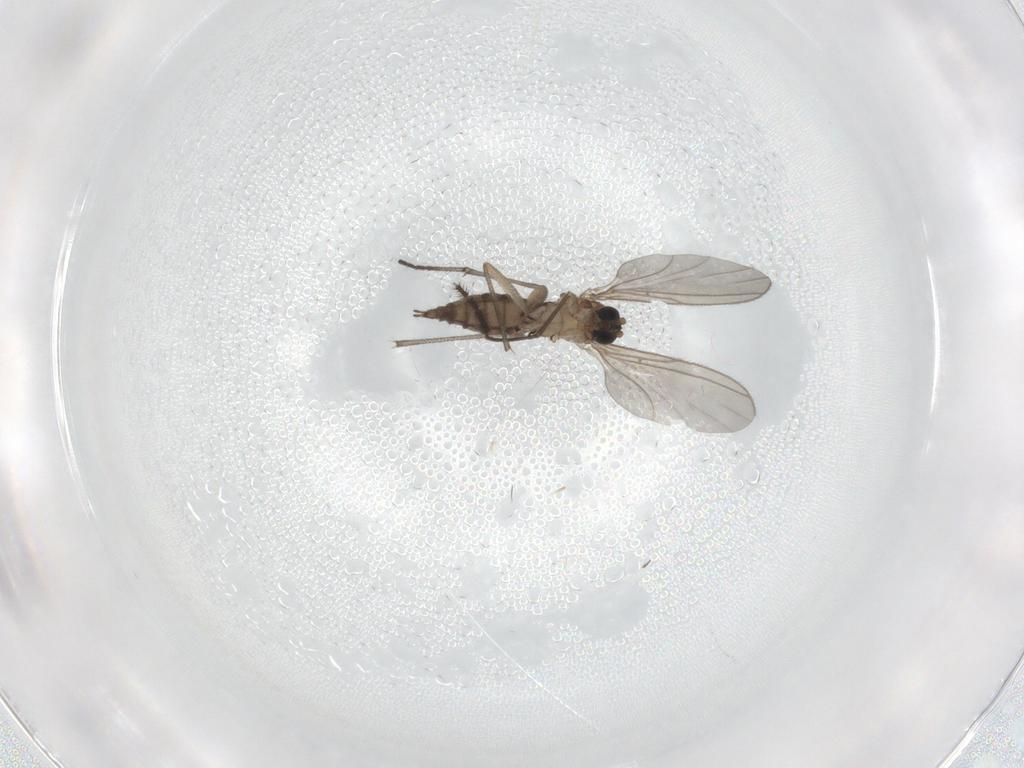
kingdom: Animalia
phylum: Arthropoda
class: Insecta
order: Diptera
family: Sciaridae
